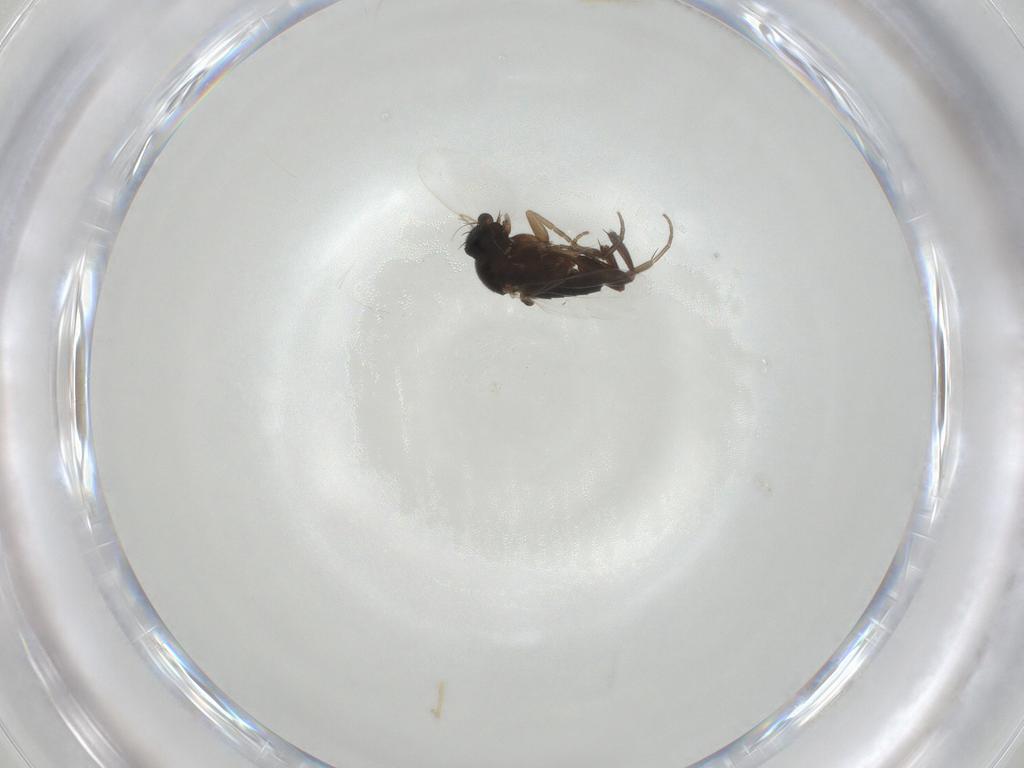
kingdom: Animalia
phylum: Arthropoda
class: Insecta
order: Diptera
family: Phoridae
